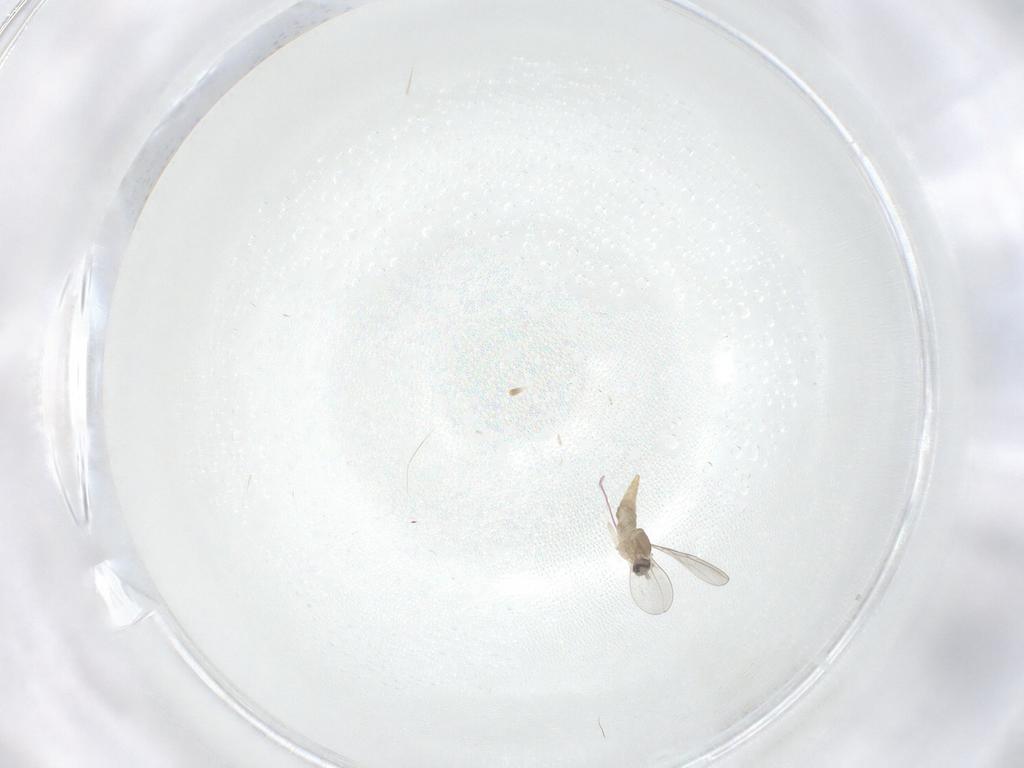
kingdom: Animalia
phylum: Arthropoda
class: Insecta
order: Diptera
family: Cecidomyiidae
